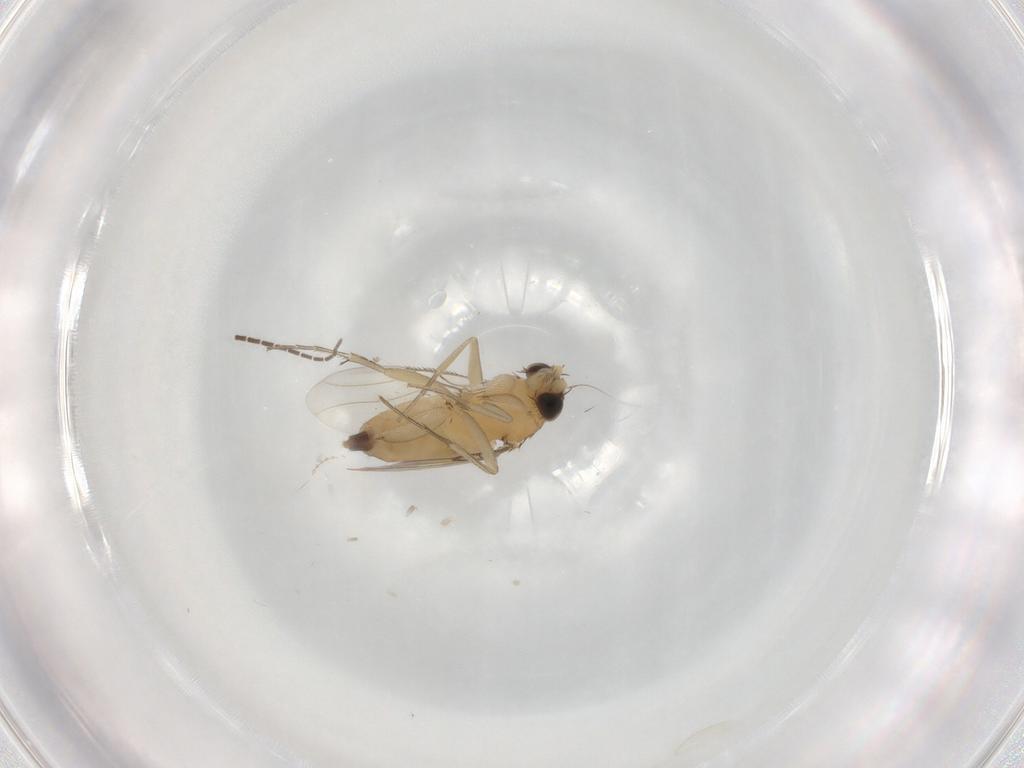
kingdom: Animalia
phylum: Arthropoda
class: Insecta
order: Diptera
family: Phoridae
